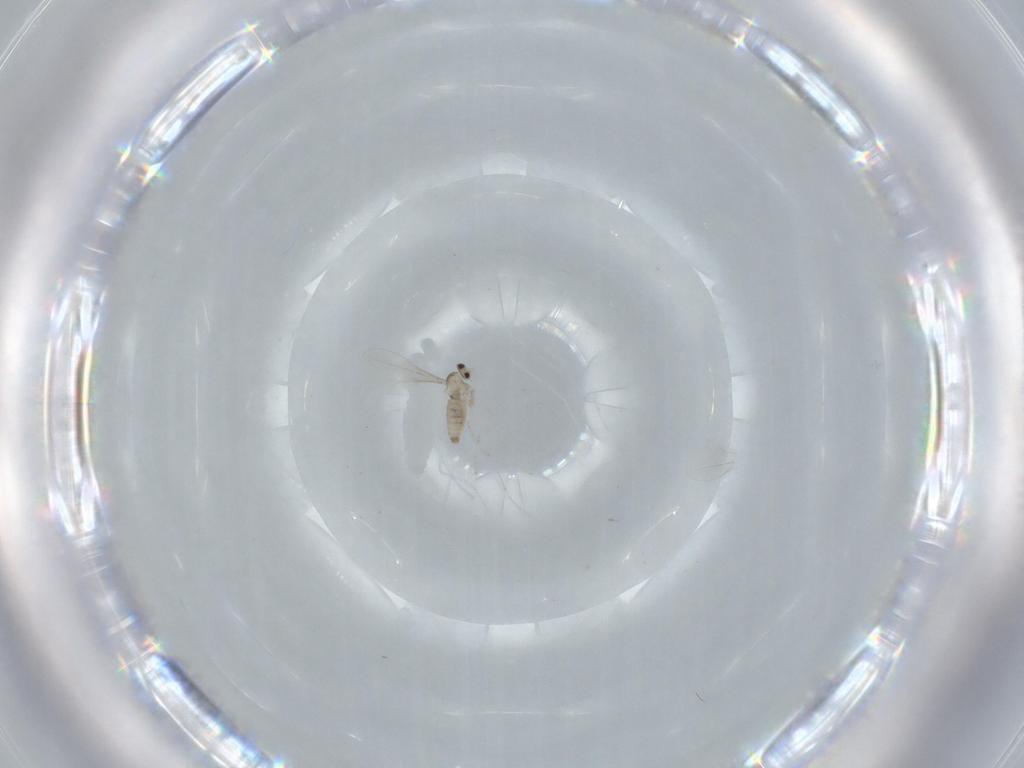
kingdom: Animalia
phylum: Arthropoda
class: Insecta
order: Diptera
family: Cecidomyiidae
